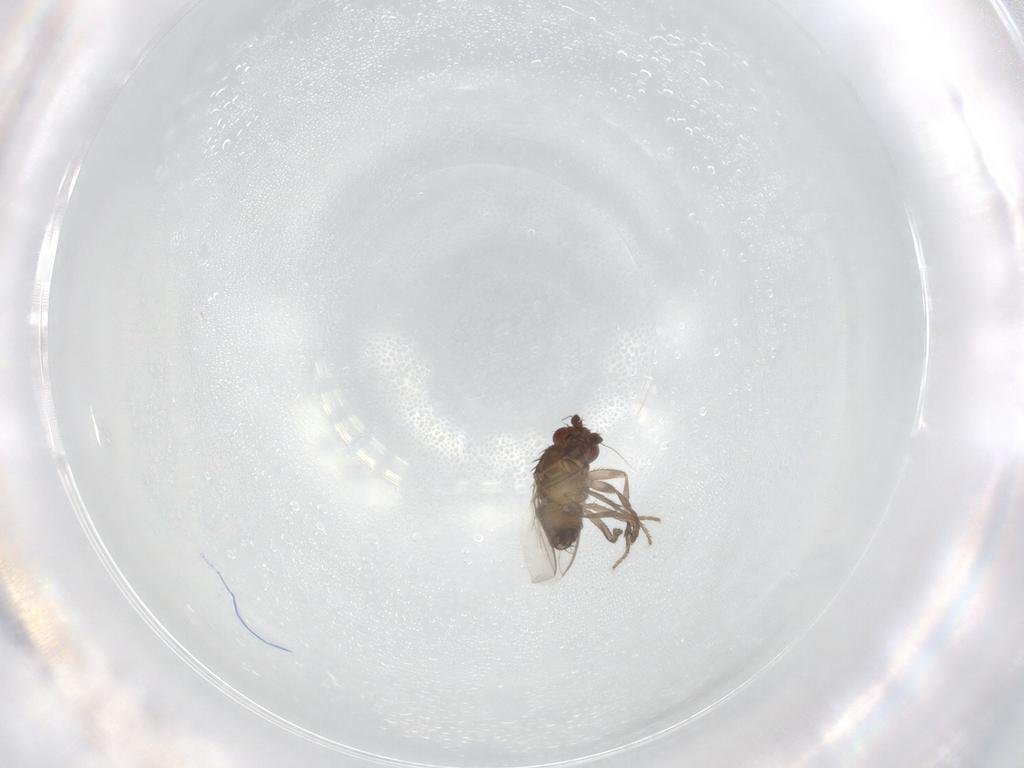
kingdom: Animalia
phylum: Arthropoda
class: Insecta
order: Diptera
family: Sphaeroceridae
